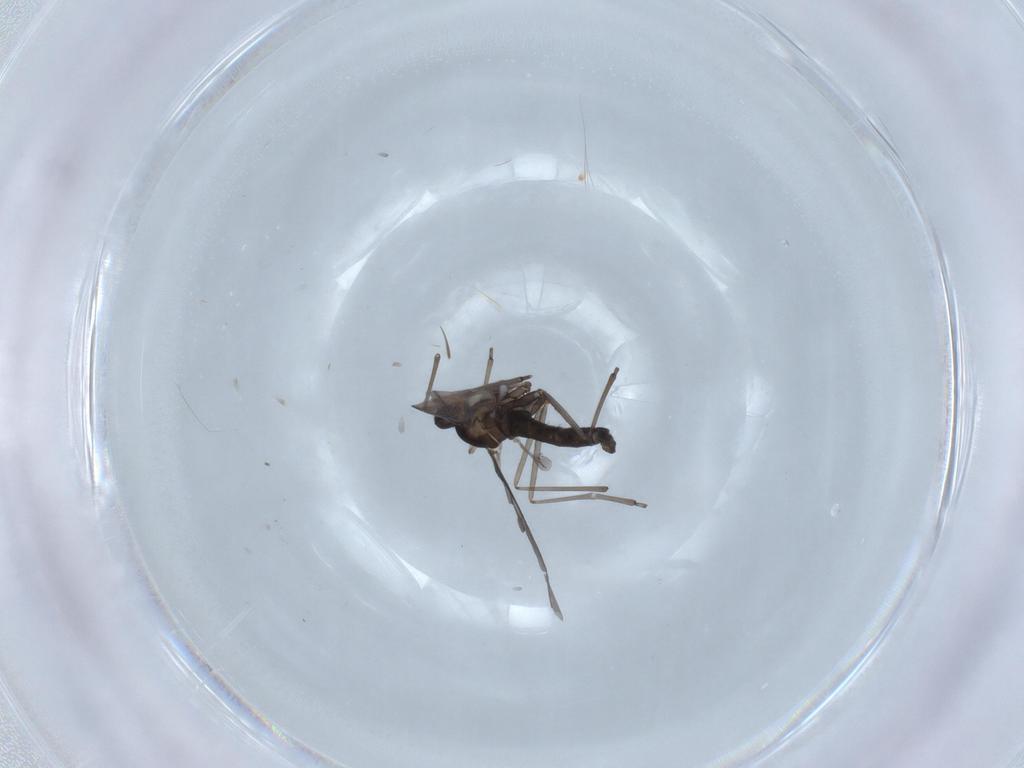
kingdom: Animalia
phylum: Arthropoda
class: Insecta
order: Diptera
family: Cecidomyiidae
